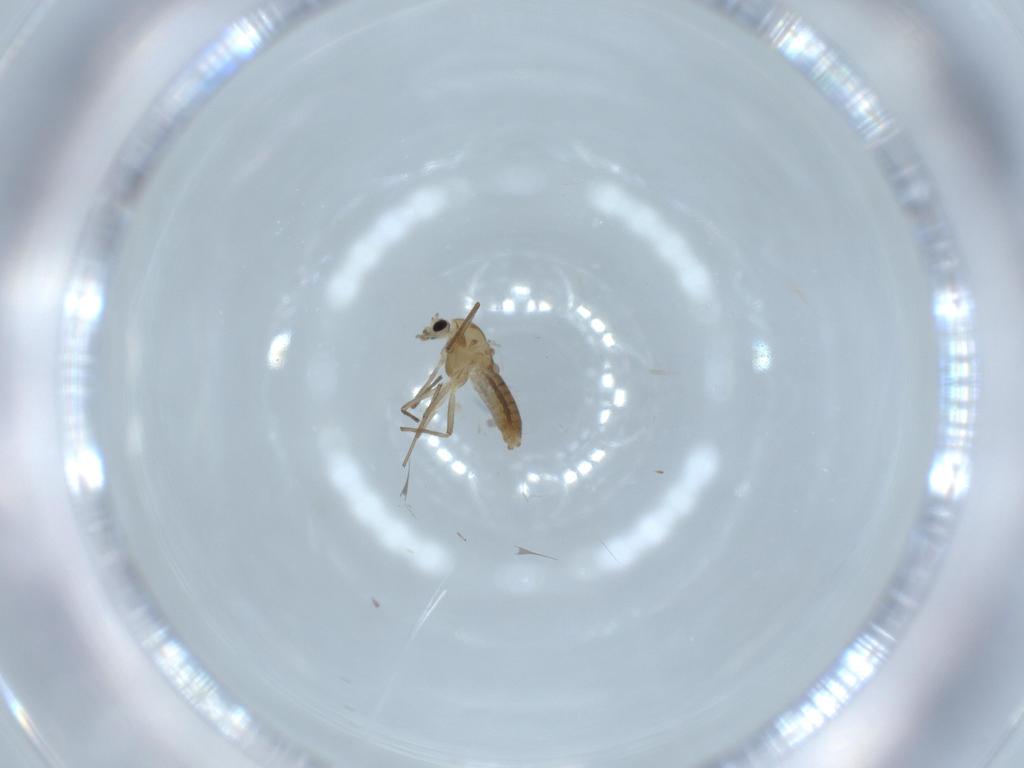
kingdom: Animalia
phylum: Arthropoda
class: Insecta
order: Diptera
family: Chironomidae
